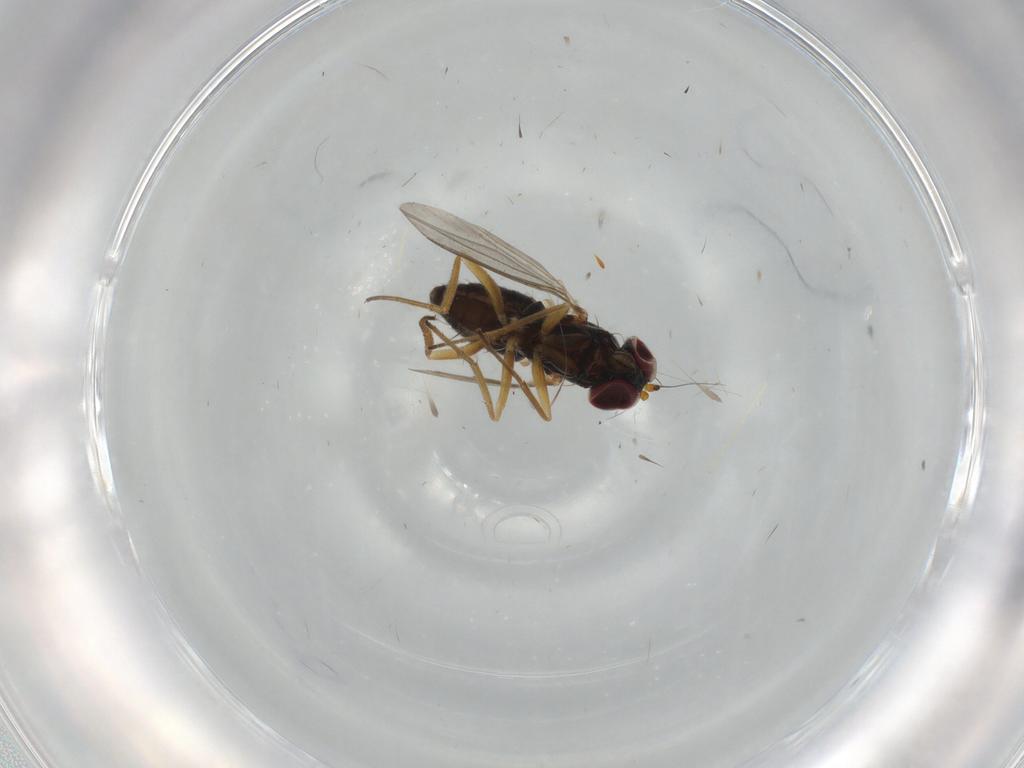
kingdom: Animalia
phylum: Arthropoda
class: Insecta
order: Diptera
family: Dolichopodidae
